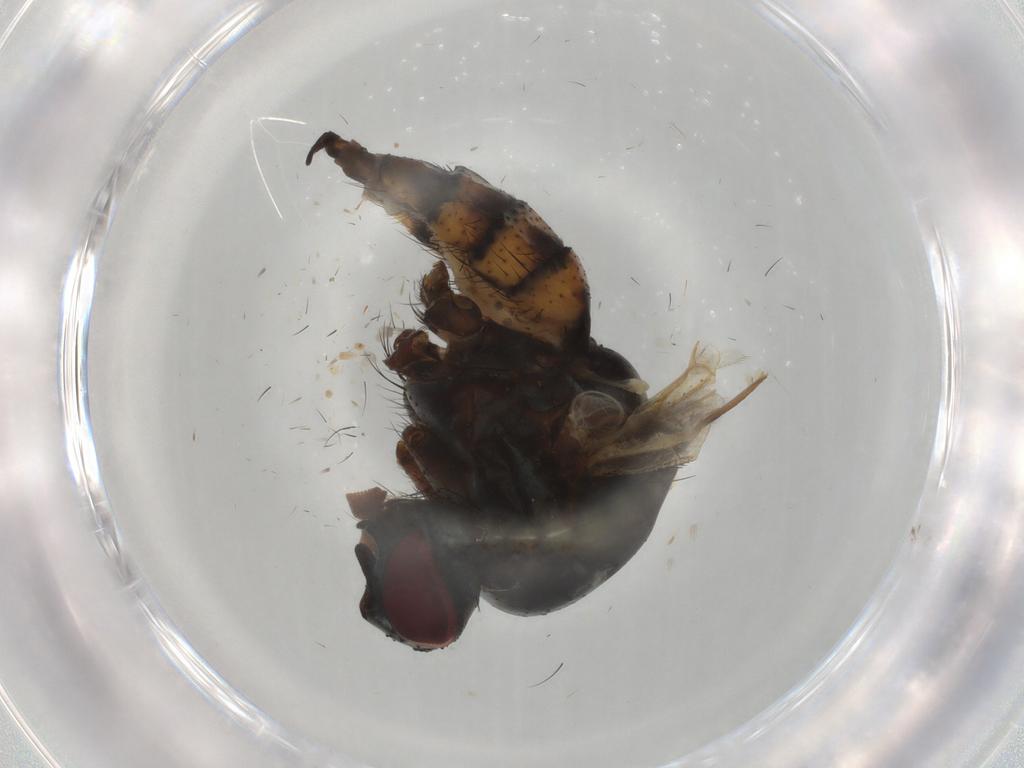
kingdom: Animalia
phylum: Arthropoda
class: Insecta
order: Diptera
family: Anthomyiidae
